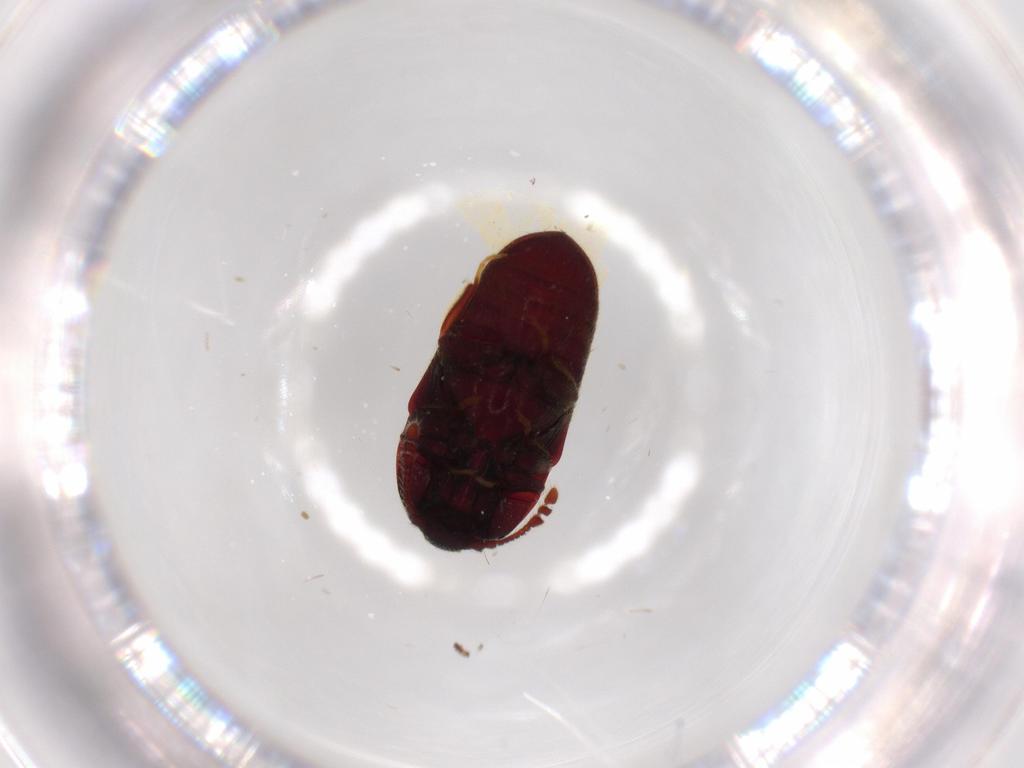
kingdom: Animalia
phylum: Arthropoda
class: Insecta
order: Coleoptera
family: Throscidae
